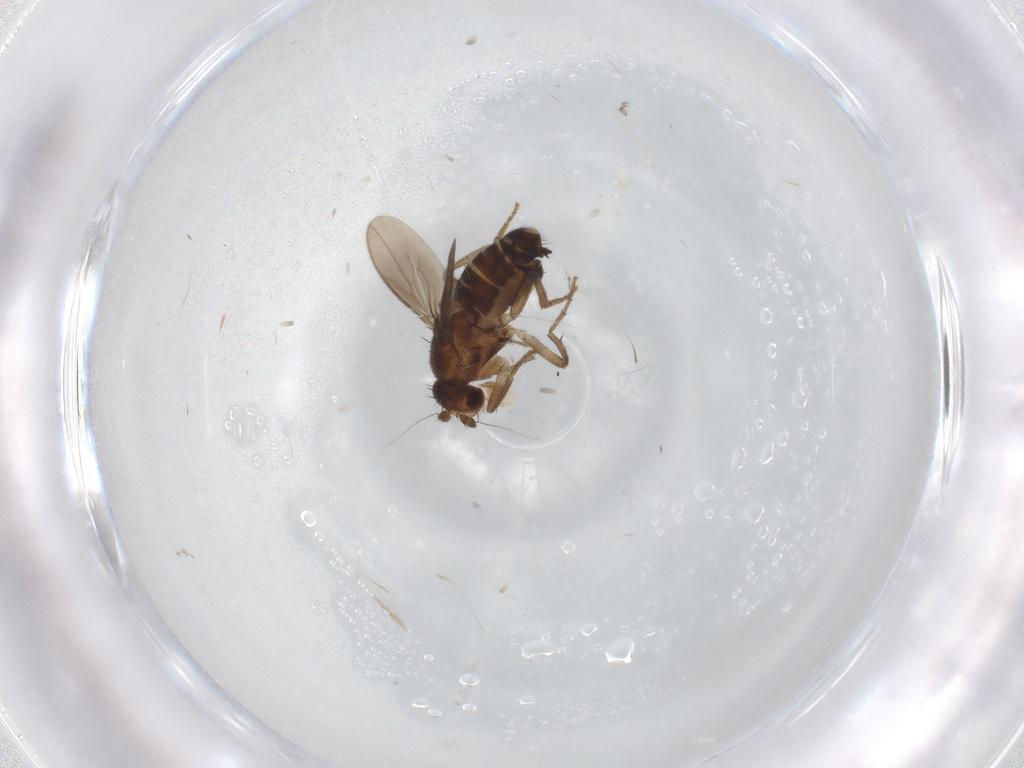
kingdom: Animalia
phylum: Arthropoda
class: Insecta
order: Diptera
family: Sphaeroceridae
